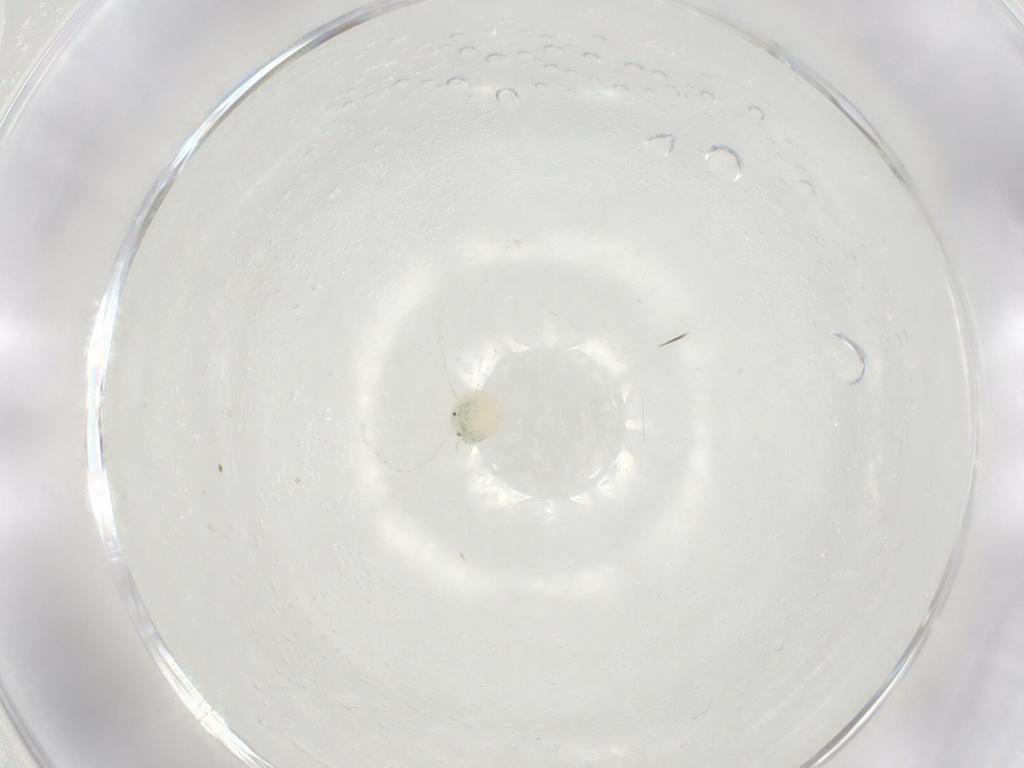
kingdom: Animalia
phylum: Arthropoda
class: Arachnida
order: Trombidiformes
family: Arrenuridae
